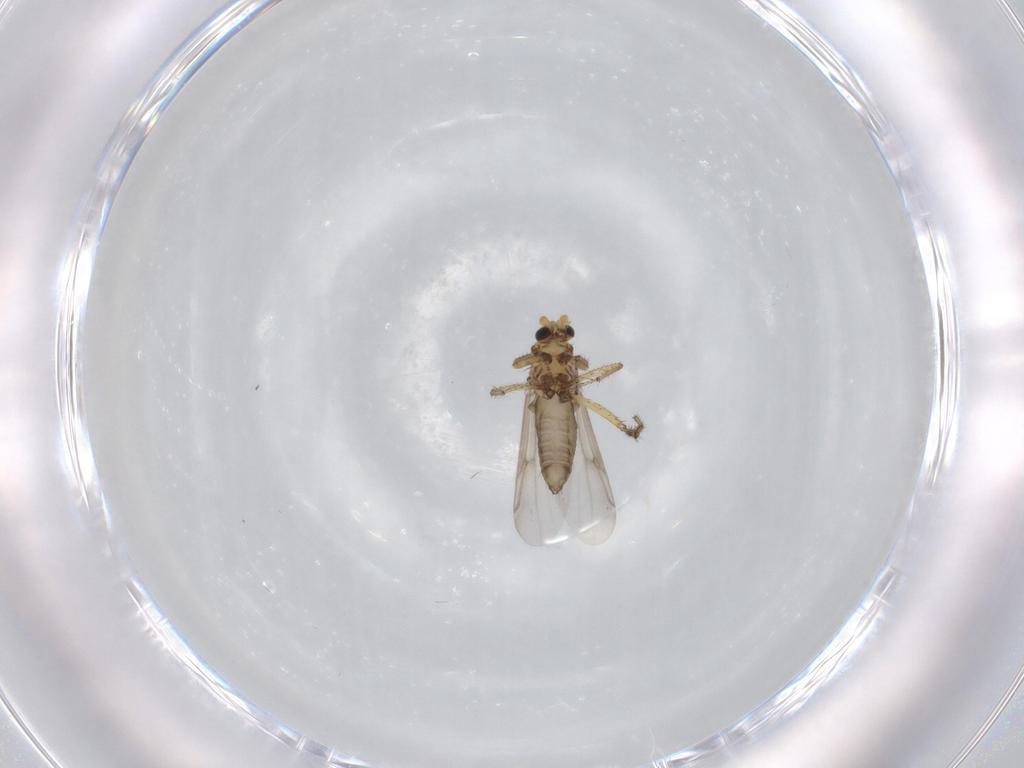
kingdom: Animalia
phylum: Arthropoda
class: Insecta
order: Diptera
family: Ceratopogonidae
